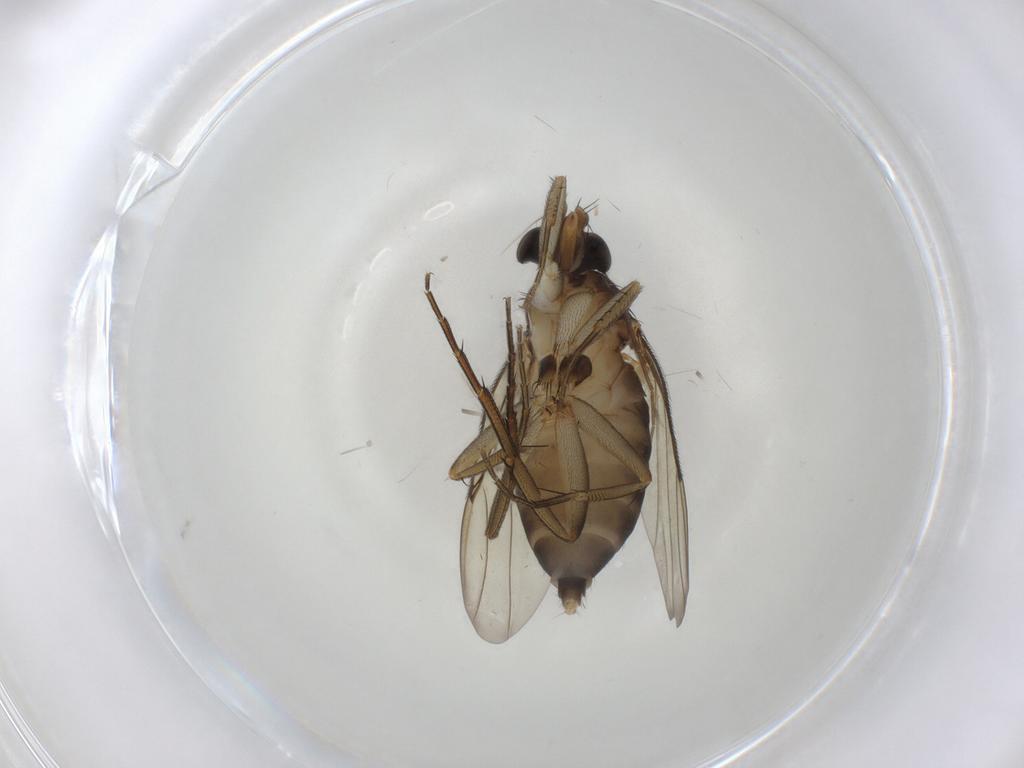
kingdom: Animalia
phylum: Arthropoda
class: Insecta
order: Diptera
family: Phoridae
